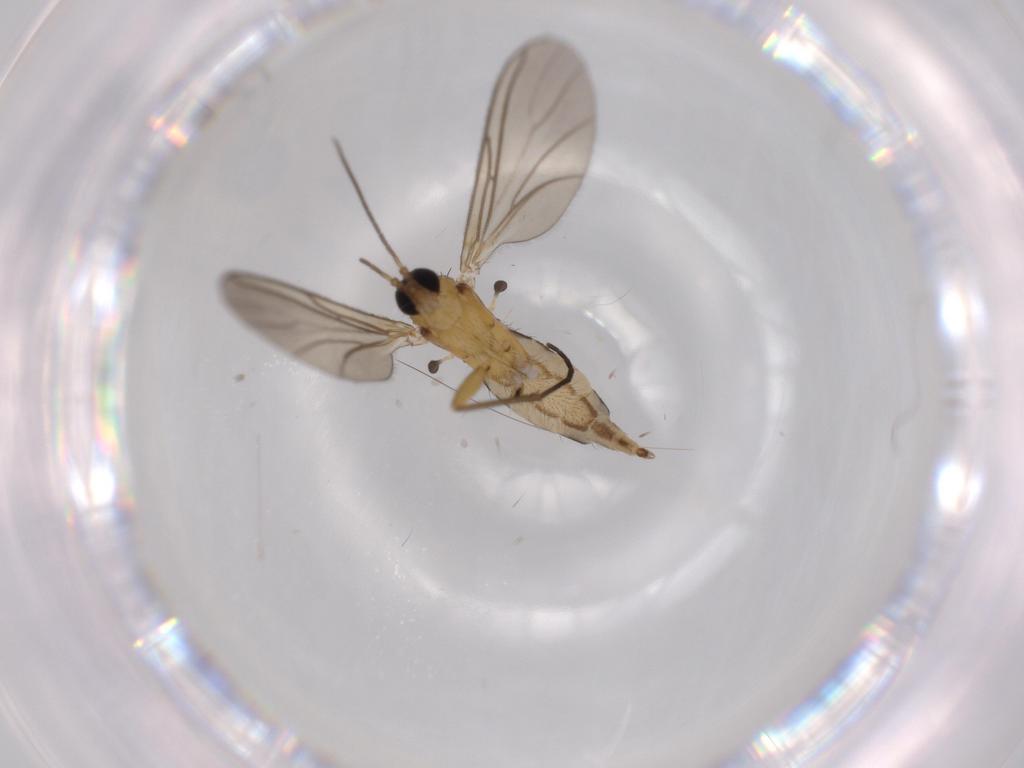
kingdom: Animalia
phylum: Arthropoda
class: Insecta
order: Diptera
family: Sciaridae
